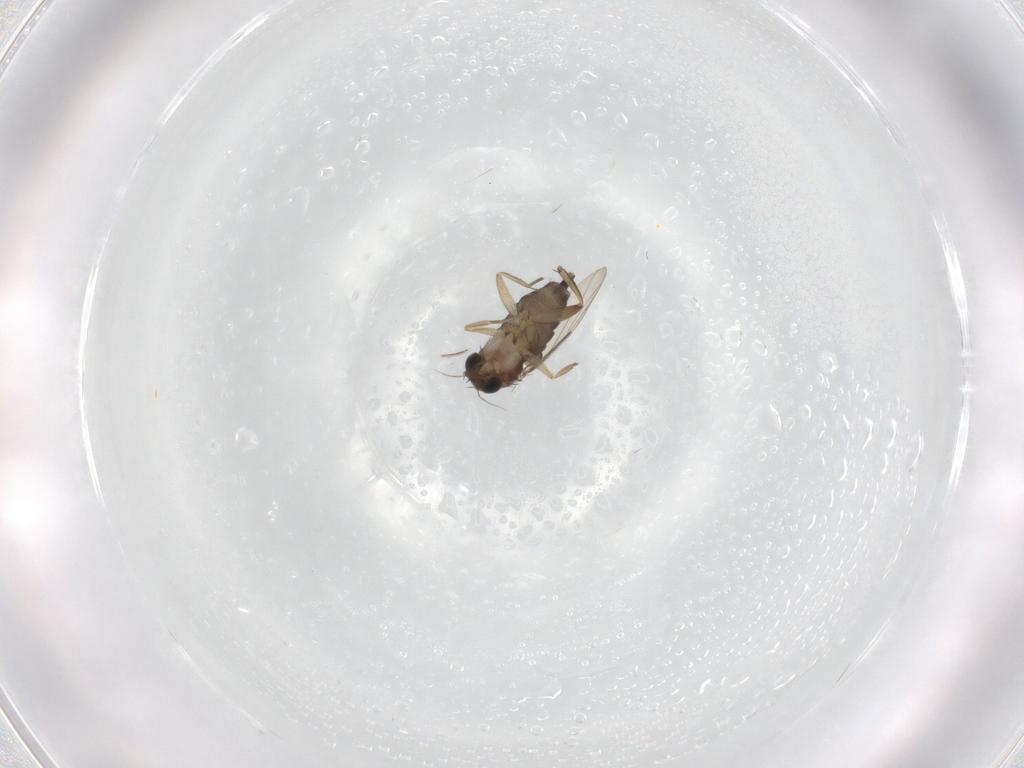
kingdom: Animalia
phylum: Arthropoda
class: Insecta
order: Diptera
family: Phoridae
